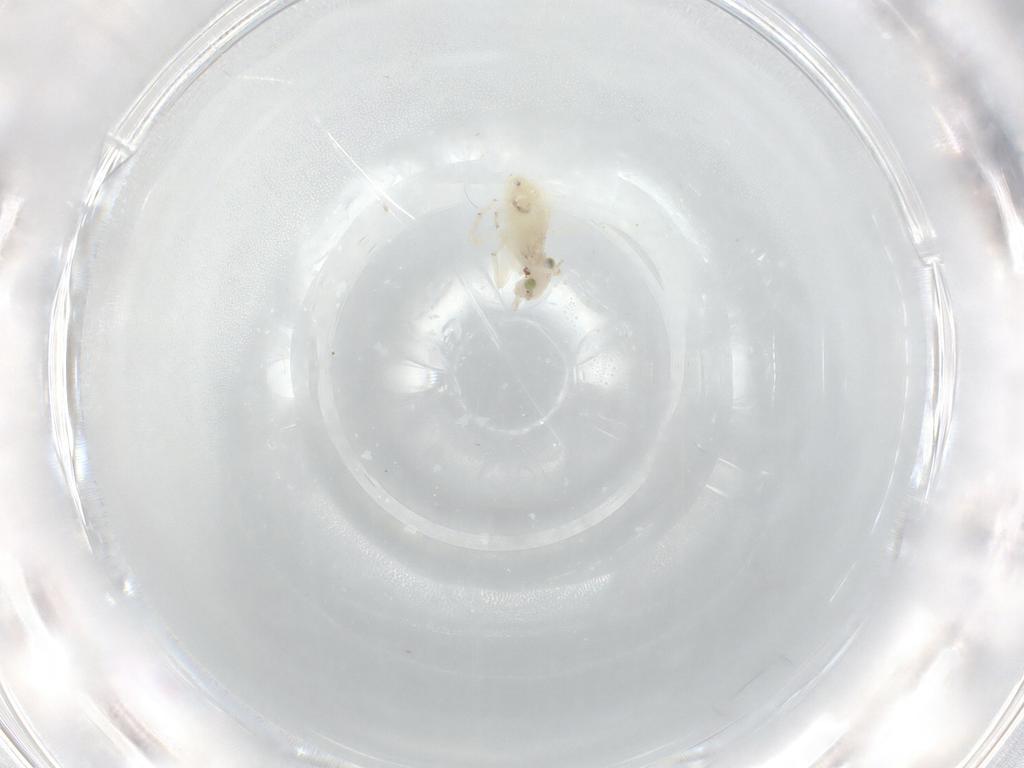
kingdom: Animalia
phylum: Arthropoda
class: Insecta
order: Psocodea
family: Lepidopsocidae
